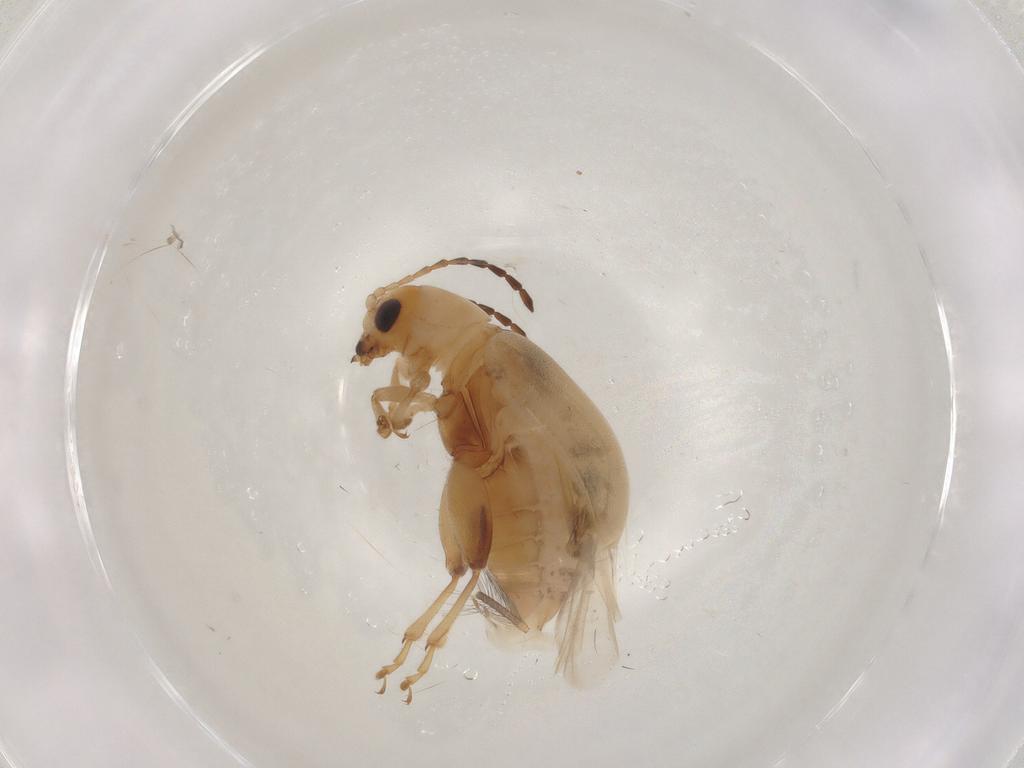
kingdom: Animalia
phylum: Arthropoda
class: Insecta
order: Coleoptera
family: Chrysomelidae
